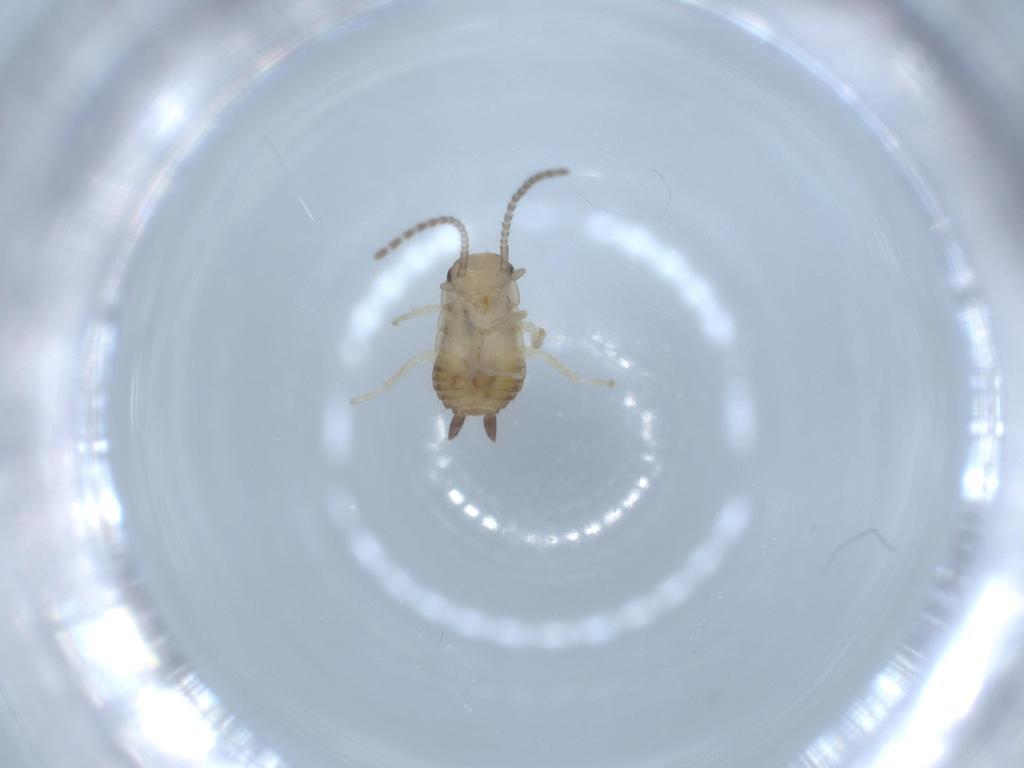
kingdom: Animalia
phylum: Arthropoda
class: Insecta
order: Blattodea
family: Ectobiidae
